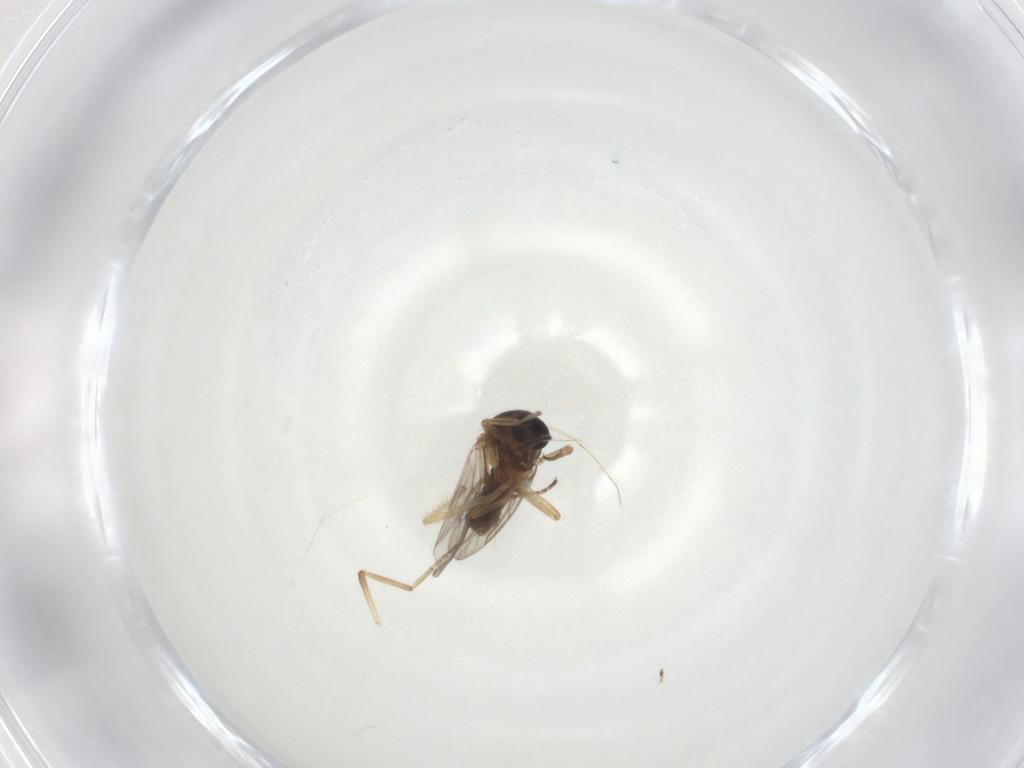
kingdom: Animalia
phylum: Arthropoda
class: Insecta
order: Diptera
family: Ceratopogonidae
